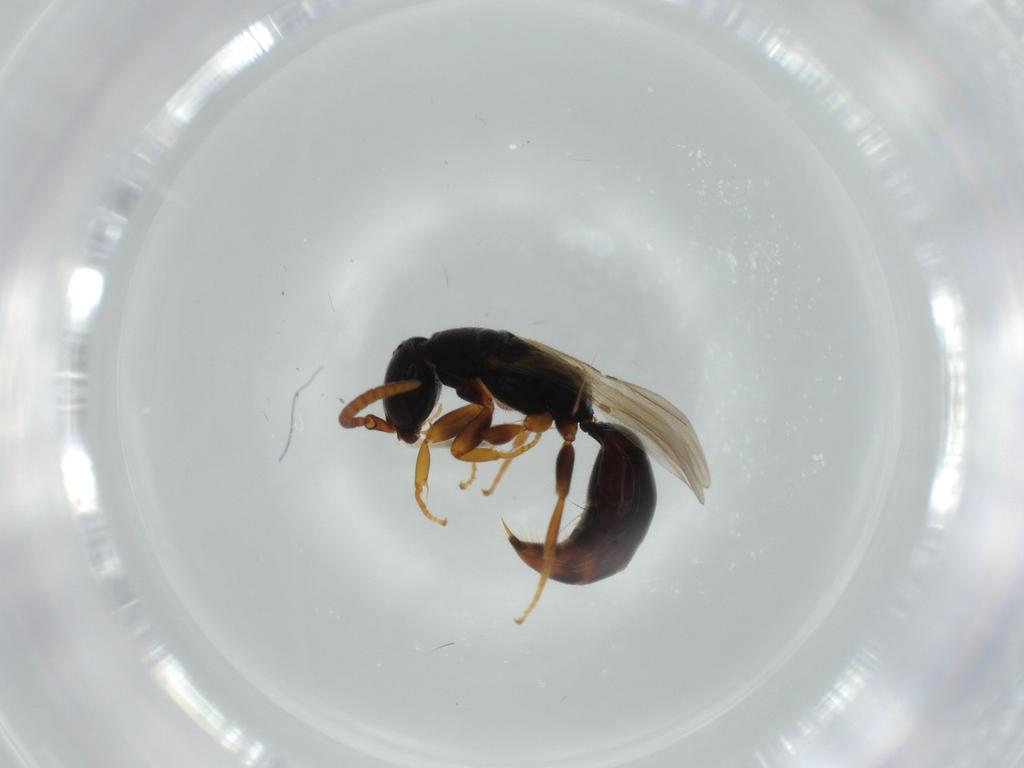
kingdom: Animalia
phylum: Arthropoda
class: Insecta
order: Hymenoptera
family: Bethylidae
